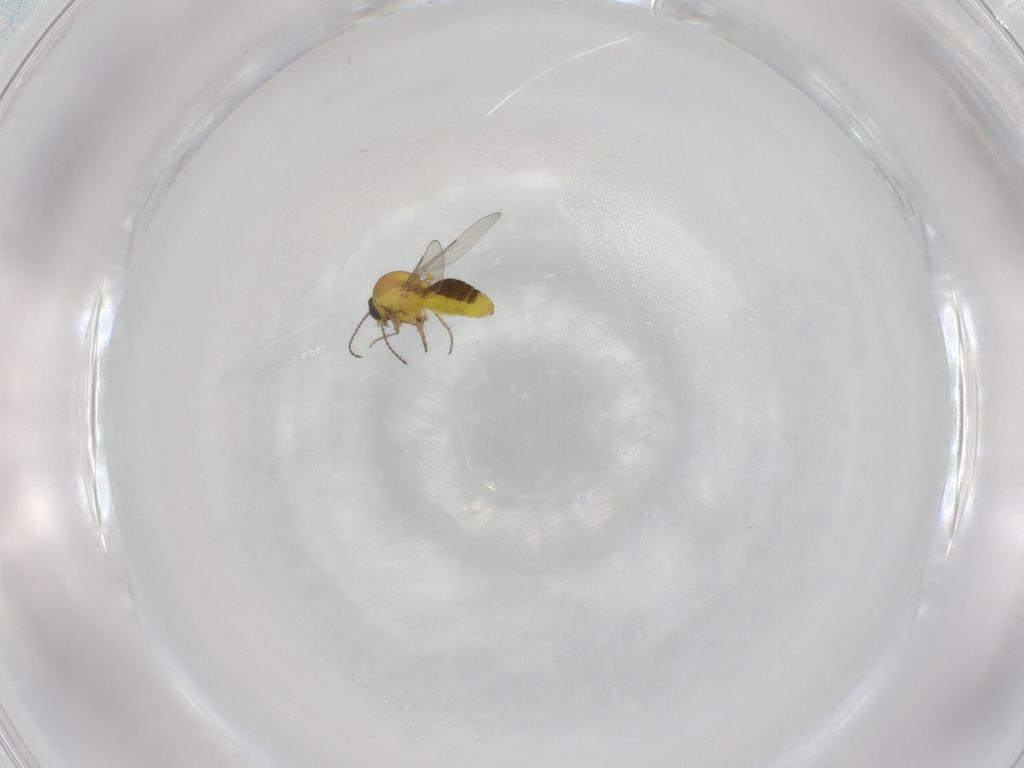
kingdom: Animalia
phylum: Arthropoda
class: Insecta
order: Diptera
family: Ceratopogonidae
